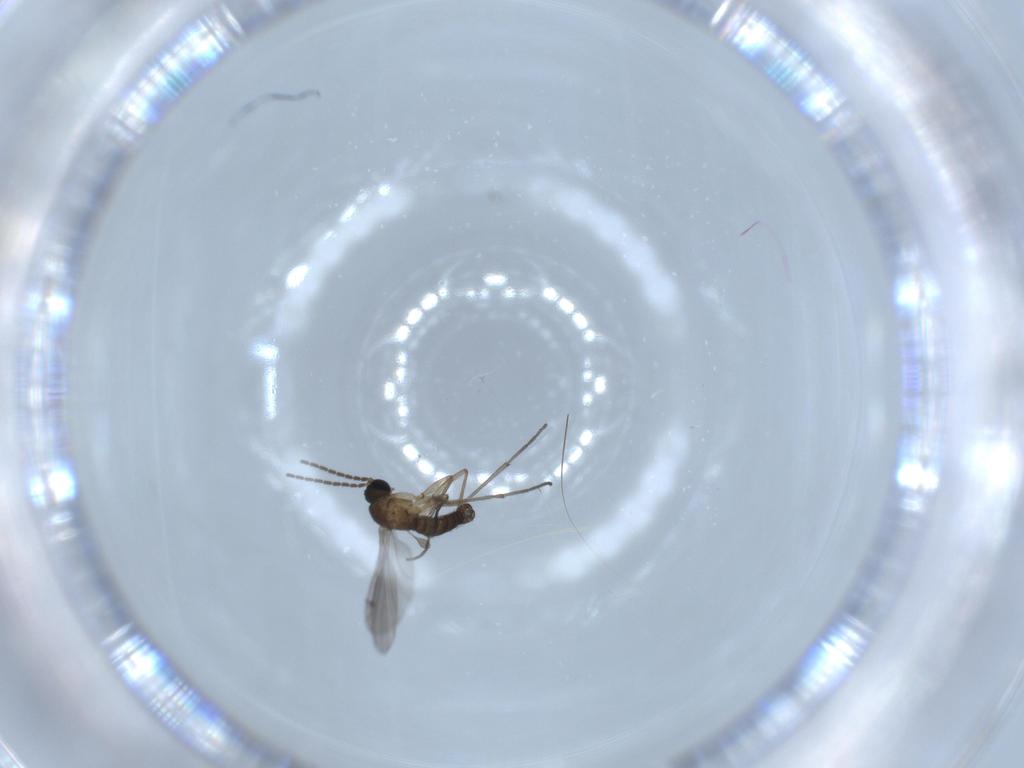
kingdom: Animalia
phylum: Arthropoda
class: Insecta
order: Diptera
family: Sciaridae
